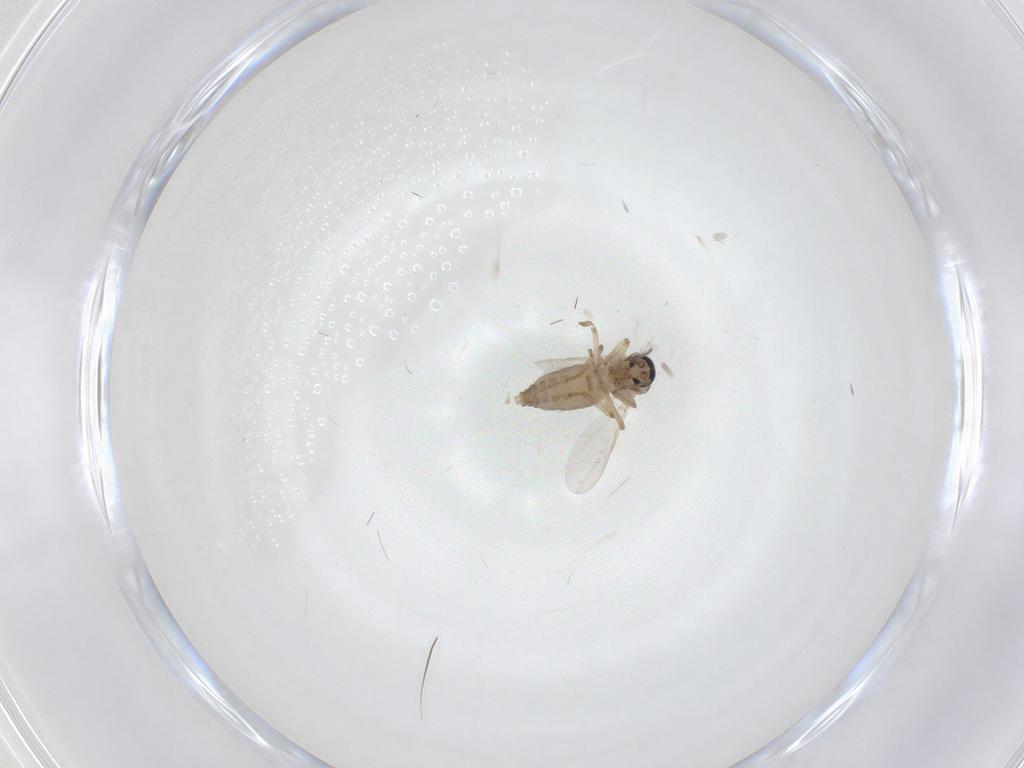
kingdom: Animalia
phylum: Arthropoda
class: Insecta
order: Diptera
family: Ceratopogonidae
